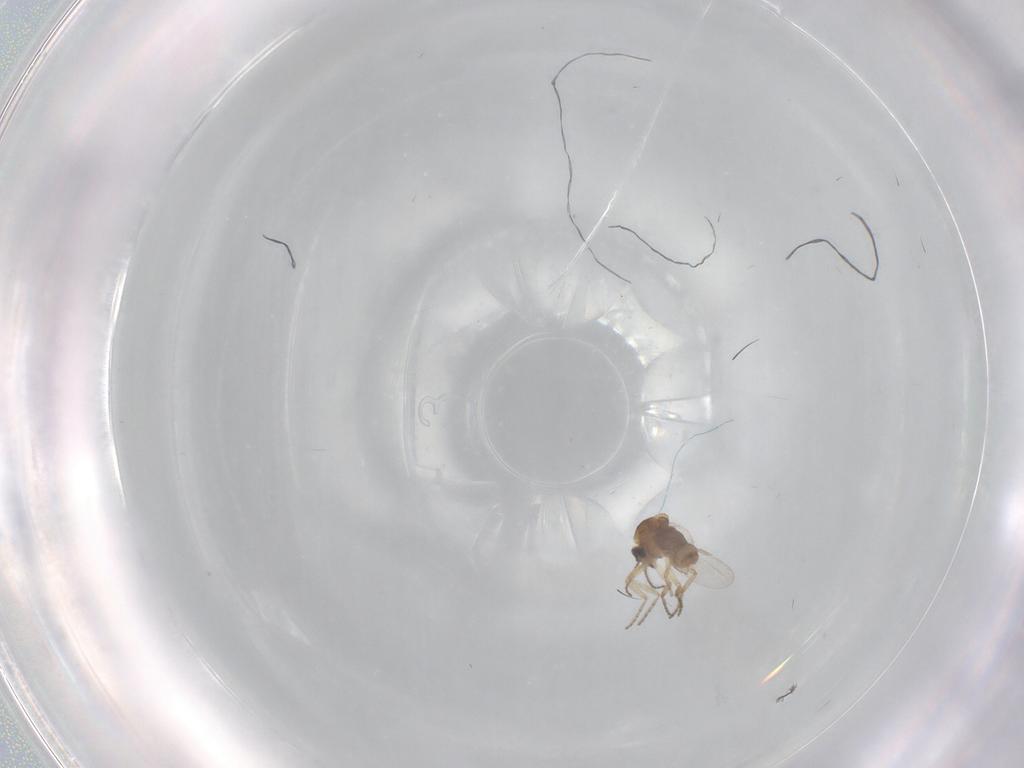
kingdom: Animalia
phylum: Arthropoda
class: Insecta
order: Diptera
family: Ceratopogonidae
